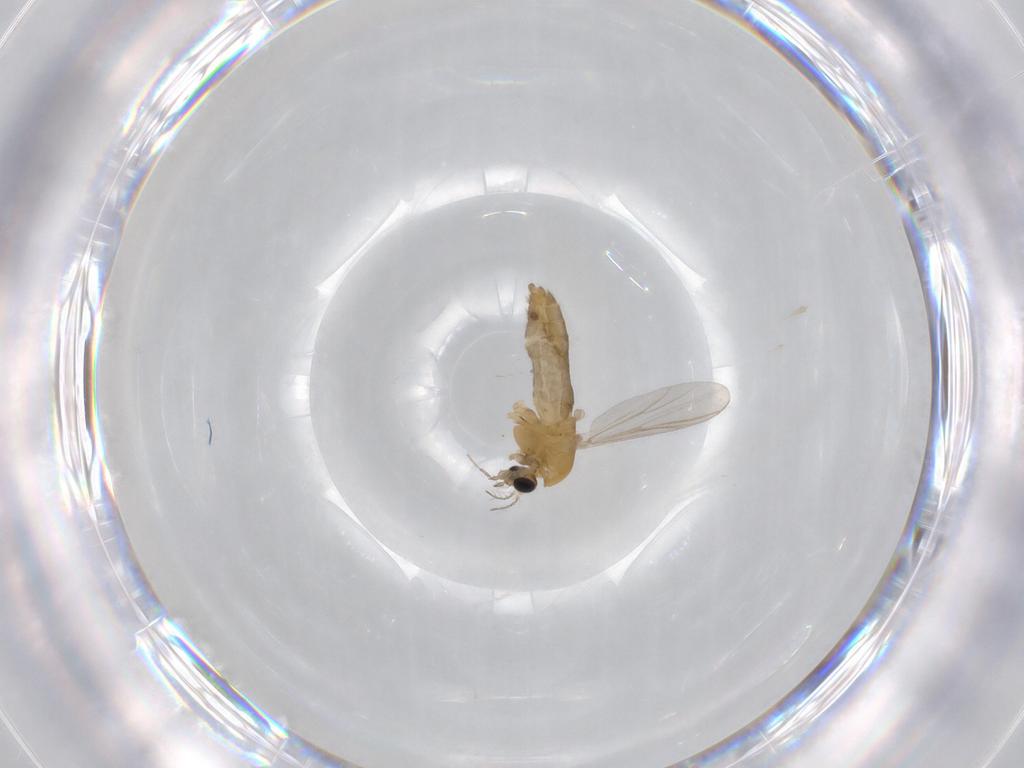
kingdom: Animalia
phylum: Arthropoda
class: Insecta
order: Diptera
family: Chironomidae
